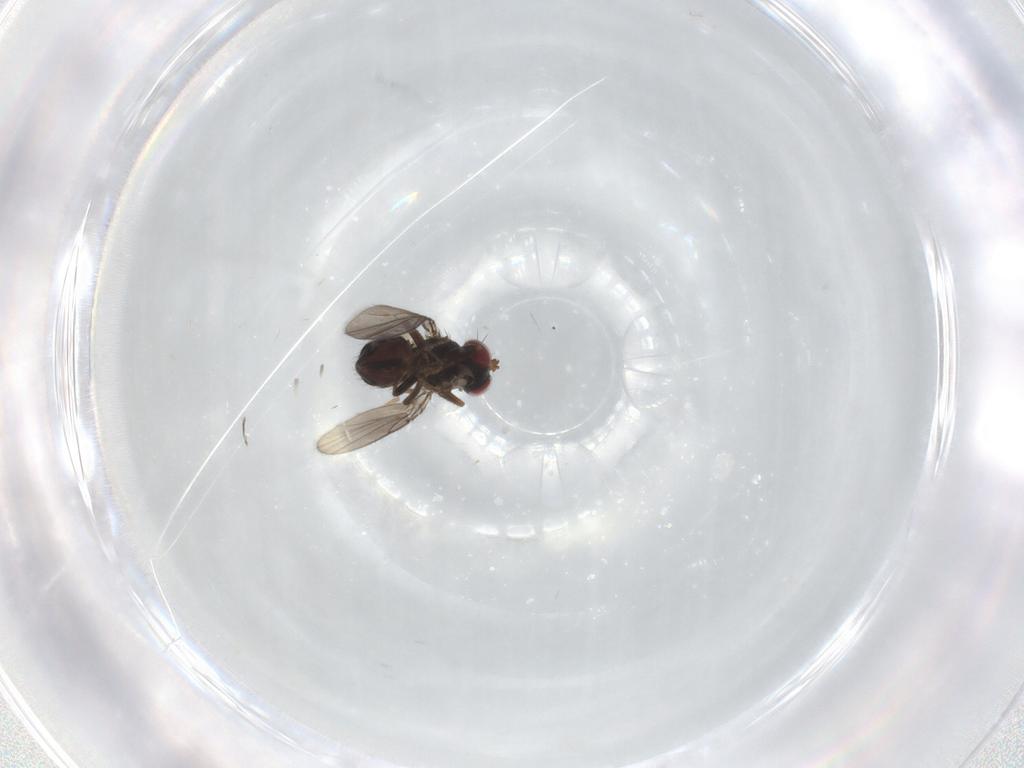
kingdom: Animalia
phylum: Arthropoda
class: Insecta
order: Diptera
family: Ephydridae
